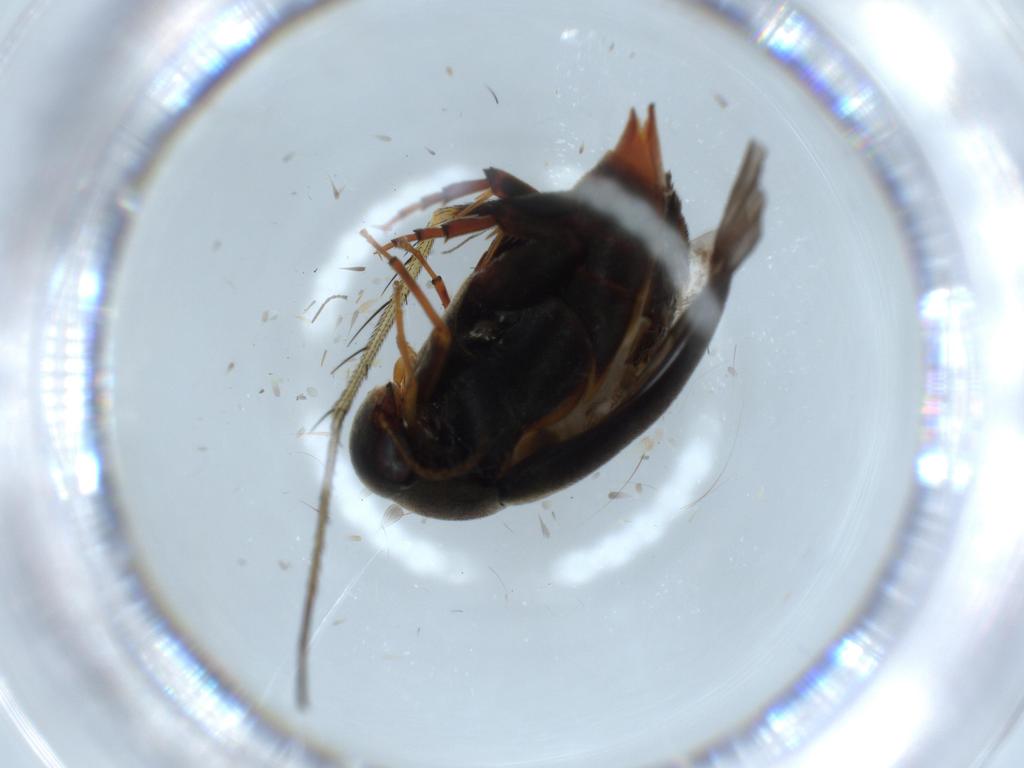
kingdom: Animalia
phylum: Arthropoda
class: Insecta
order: Coleoptera
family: Mordellidae
